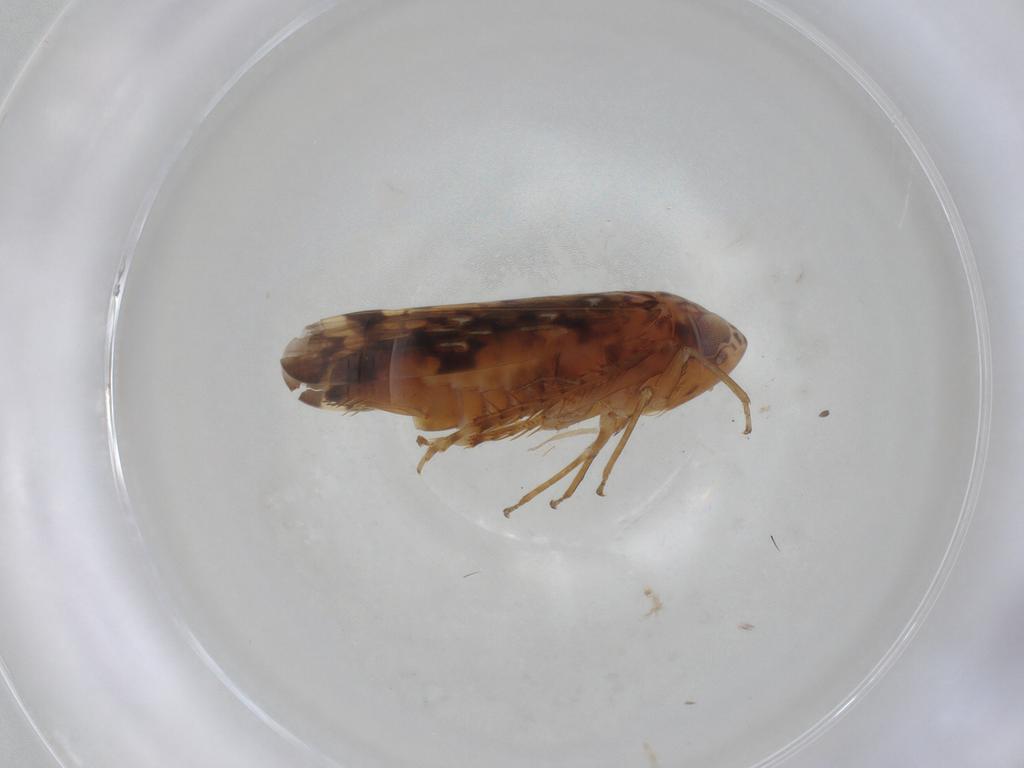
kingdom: Animalia
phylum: Arthropoda
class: Insecta
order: Hemiptera
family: Cicadellidae
